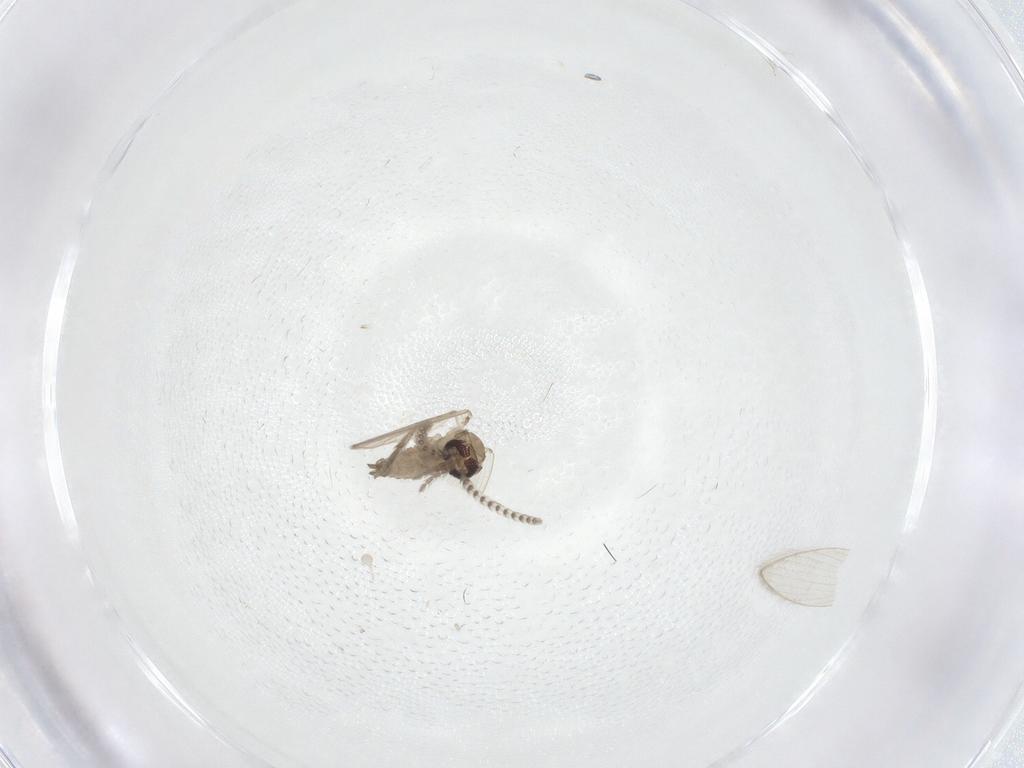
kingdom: Animalia
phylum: Arthropoda
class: Insecta
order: Diptera
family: Psychodidae
